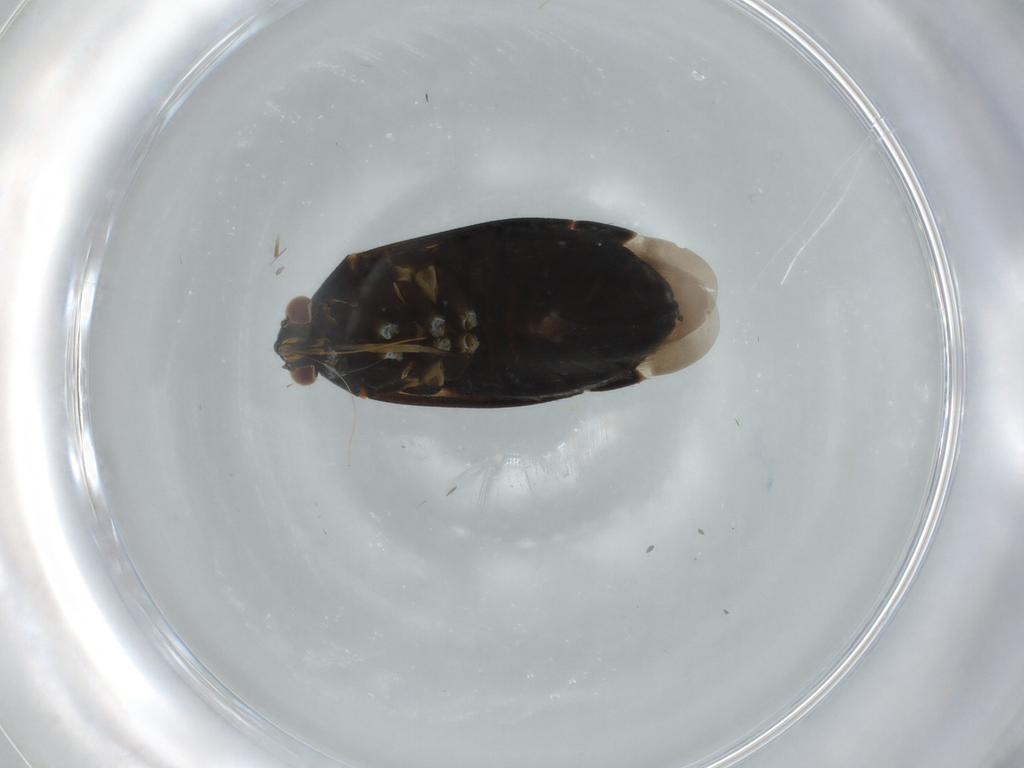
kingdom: Animalia
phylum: Arthropoda
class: Insecta
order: Hemiptera
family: Miridae
